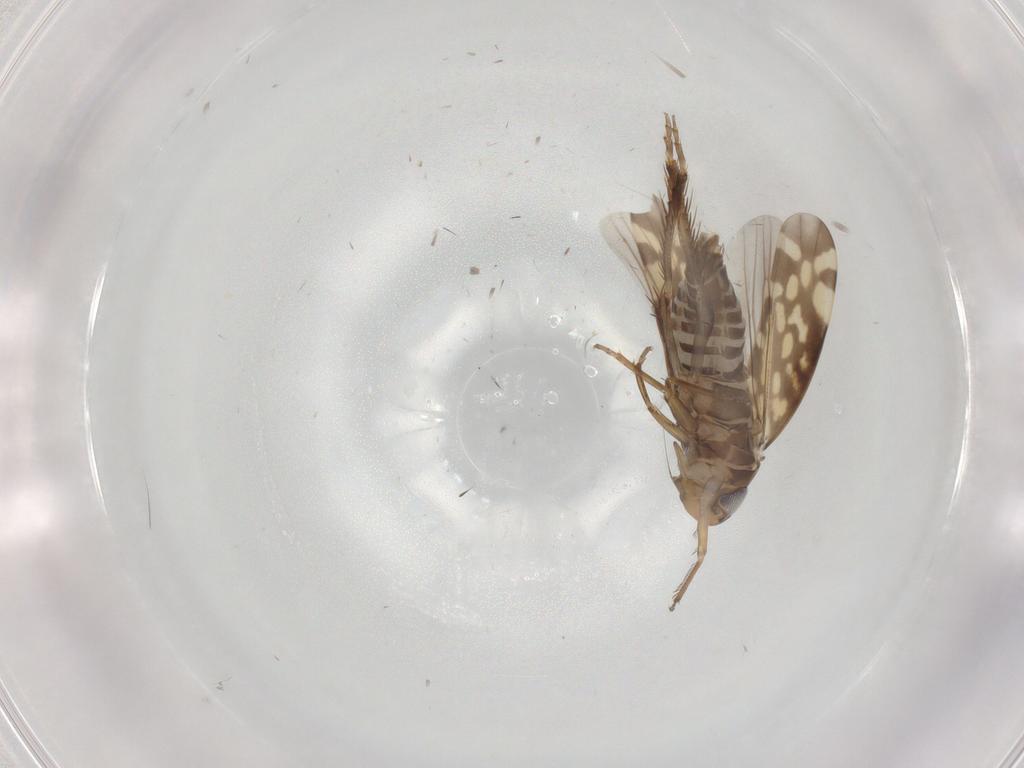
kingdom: Animalia
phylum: Arthropoda
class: Insecta
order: Hemiptera
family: Cicadellidae
